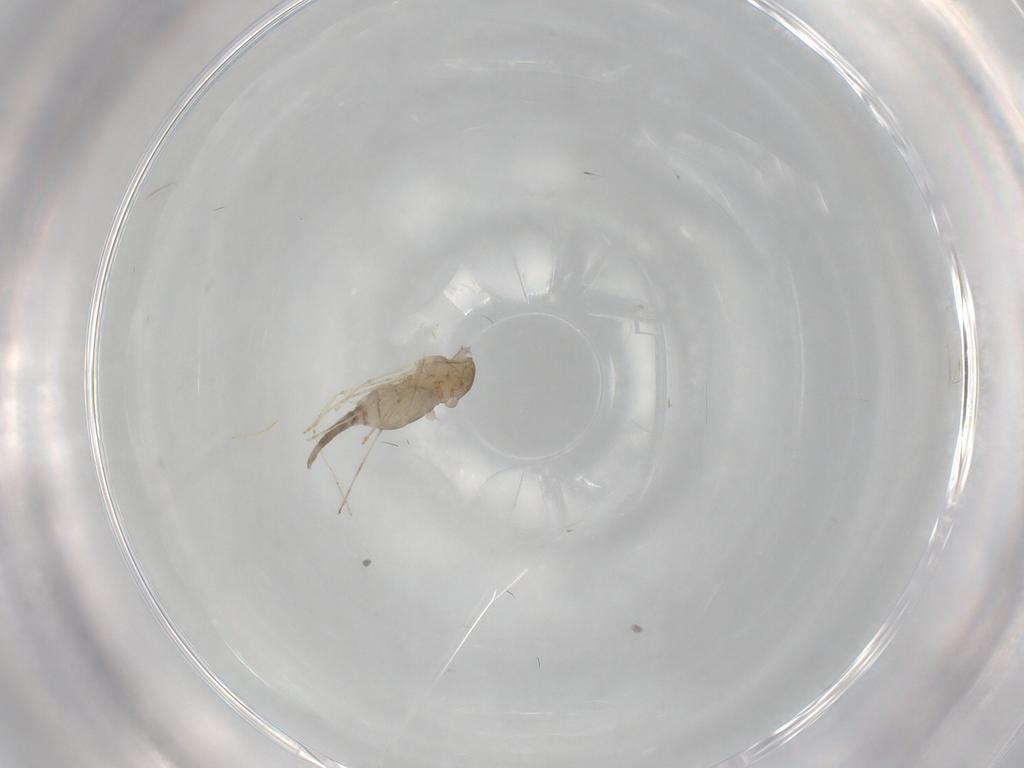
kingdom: Animalia
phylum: Arthropoda
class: Insecta
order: Diptera
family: Cecidomyiidae
